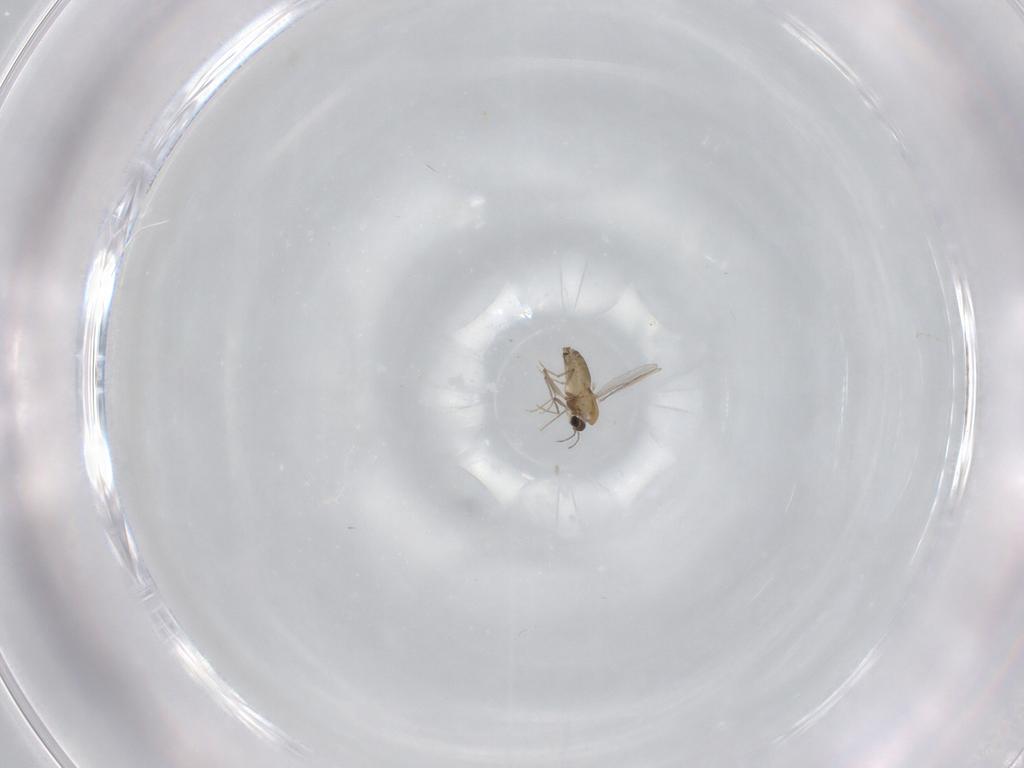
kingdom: Animalia
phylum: Arthropoda
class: Insecta
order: Diptera
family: Chironomidae
